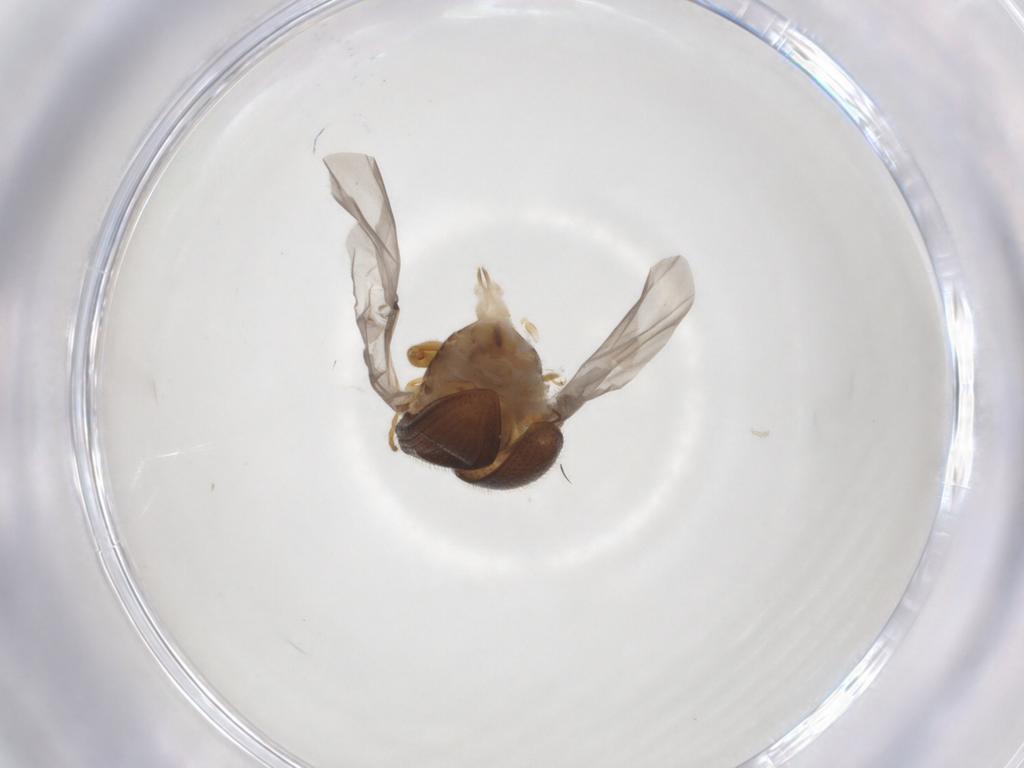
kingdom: Animalia
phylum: Arthropoda
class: Insecta
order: Coleoptera
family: Chrysomelidae
